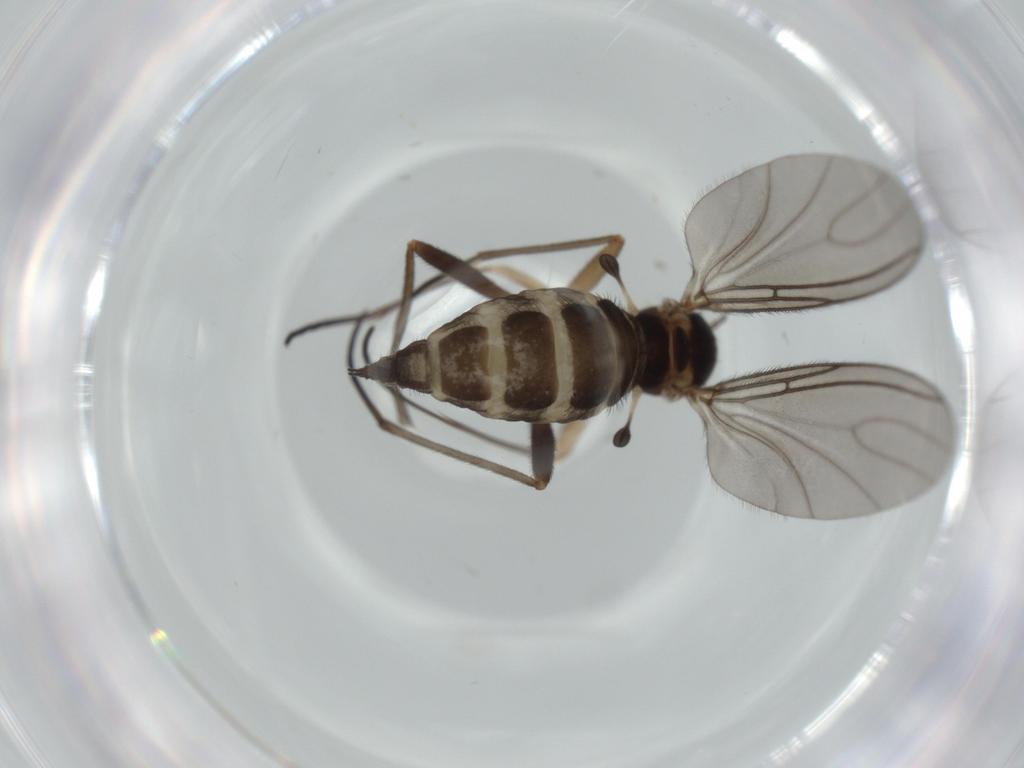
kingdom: Animalia
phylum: Arthropoda
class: Insecta
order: Diptera
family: Sciaridae
